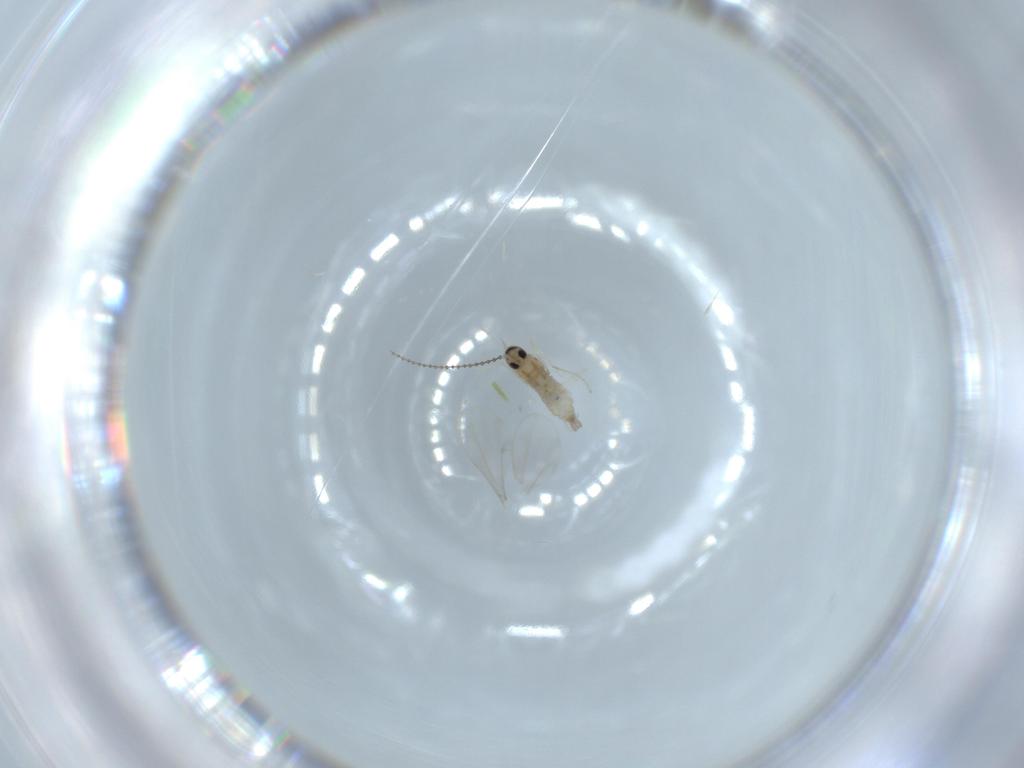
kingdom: Animalia
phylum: Arthropoda
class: Insecta
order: Diptera
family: Cecidomyiidae
